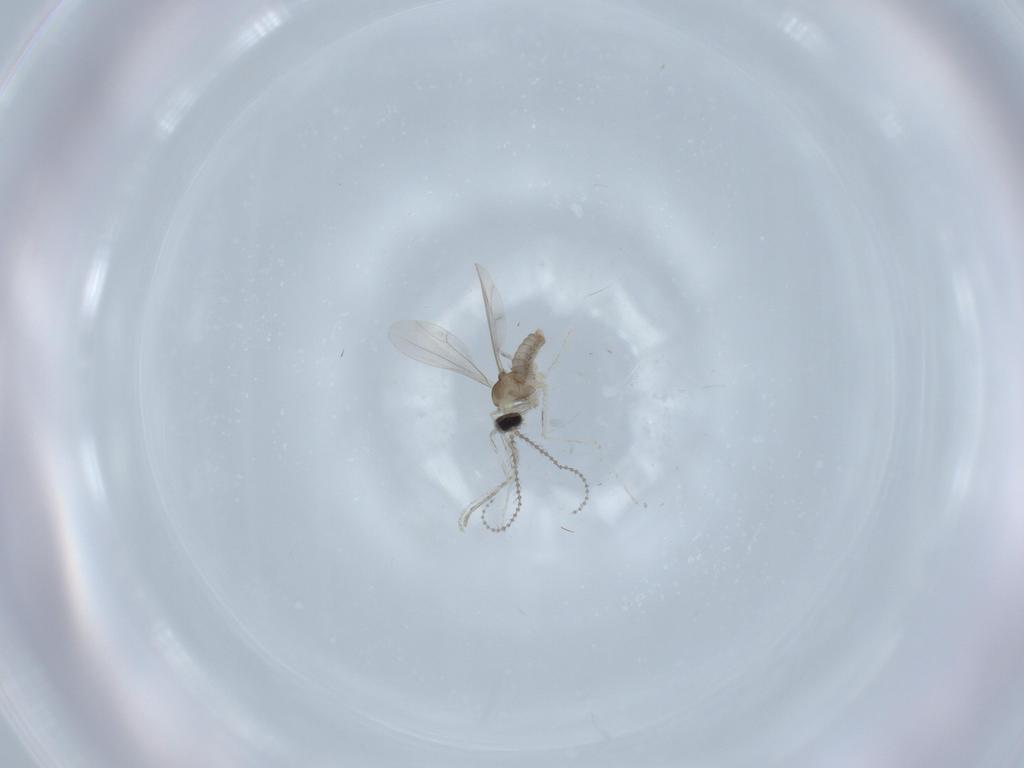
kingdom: Animalia
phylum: Arthropoda
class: Insecta
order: Diptera
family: Cecidomyiidae
